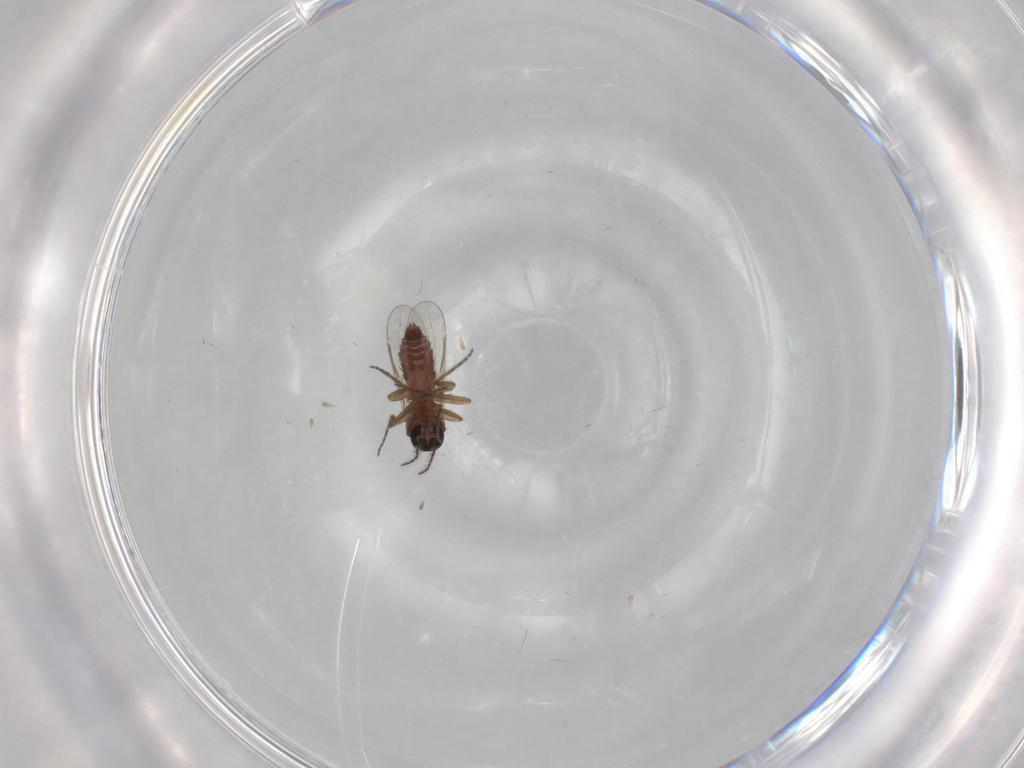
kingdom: Animalia
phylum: Arthropoda
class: Insecta
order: Diptera
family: Ceratopogonidae
